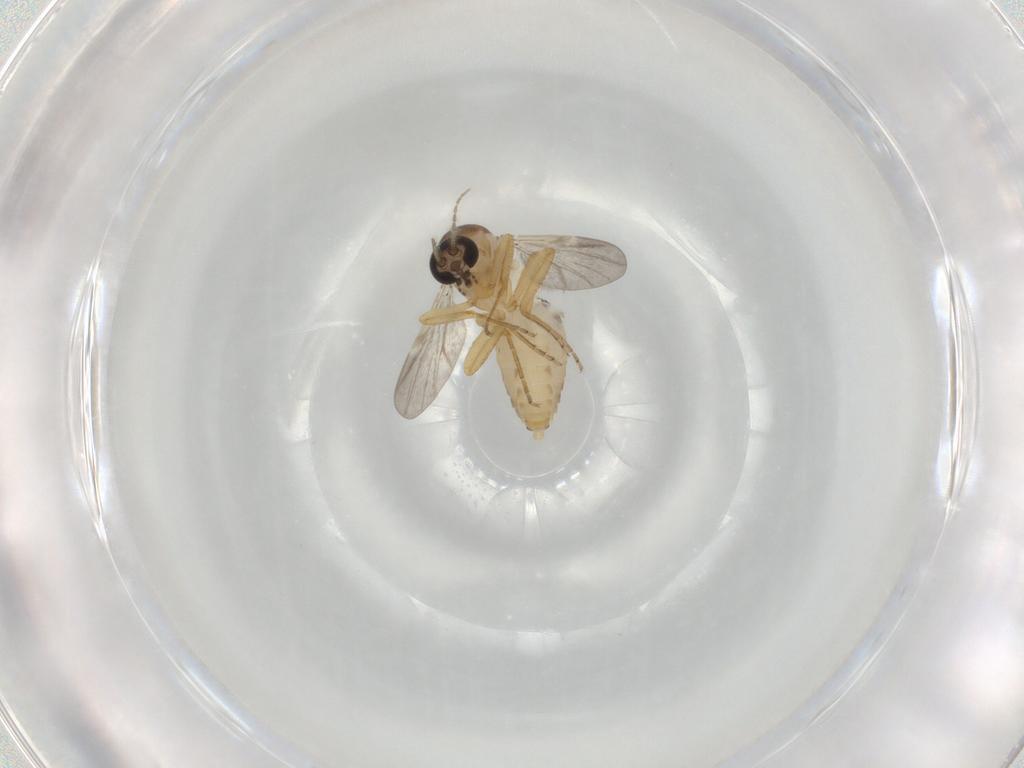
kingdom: Animalia
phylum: Arthropoda
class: Insecta
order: Diptera
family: Ceratopogonidae
